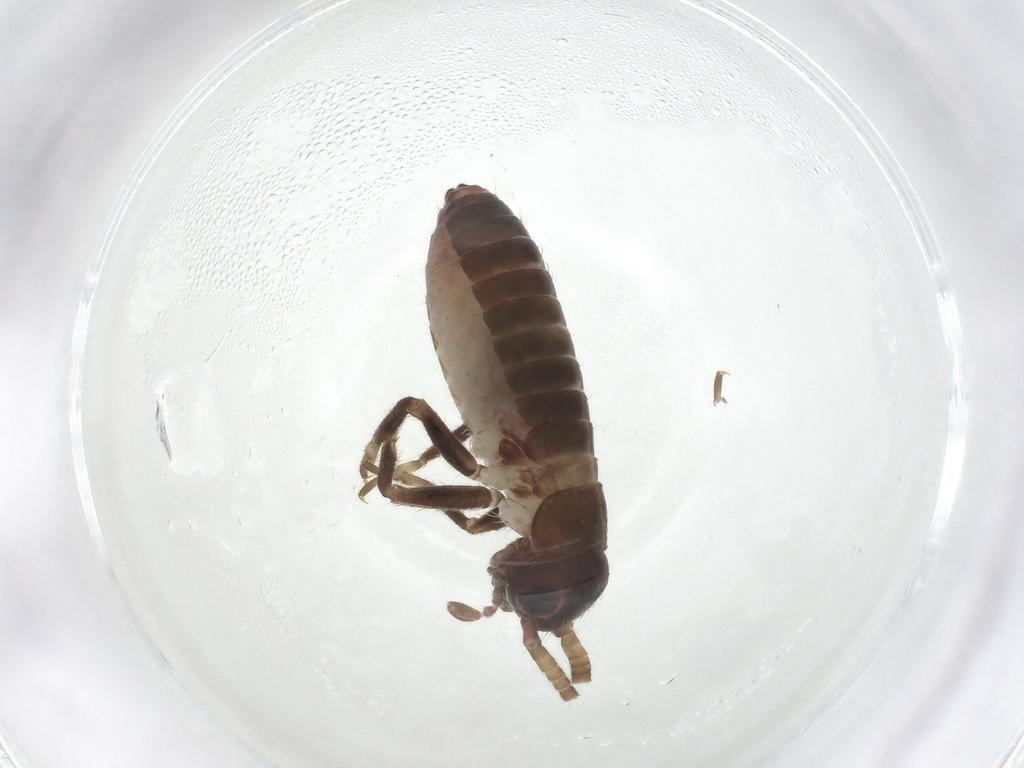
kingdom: Animalia
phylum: Arthropoda
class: Insecta
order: Orthoptera
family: Gryllidae
